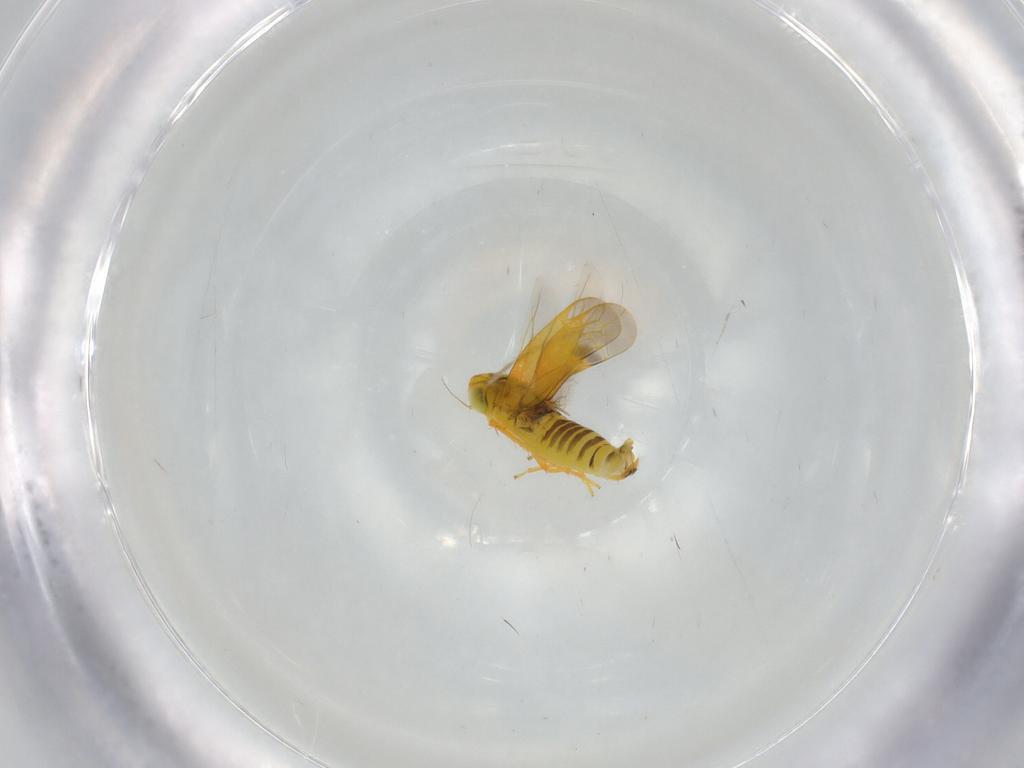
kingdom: Animalia
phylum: Arthropoda
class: Insecta
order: Hemiptera
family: Cicadellidae
